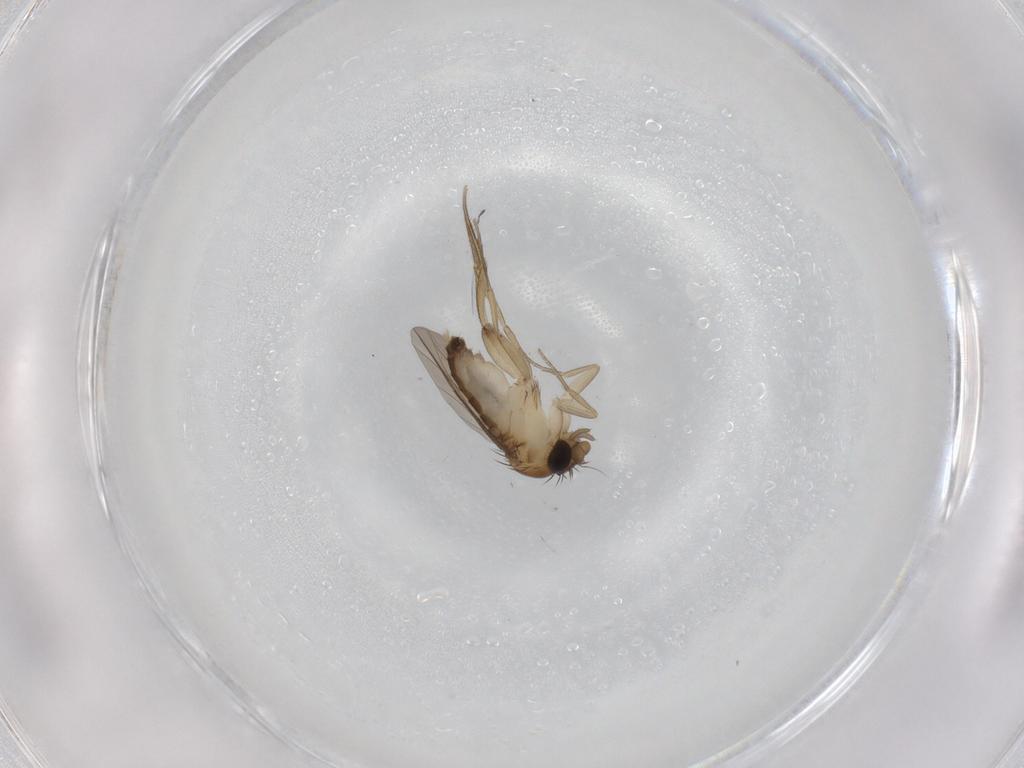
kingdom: Animalia
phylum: Arthropoda
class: Insecta
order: Diptera
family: Phoridae
